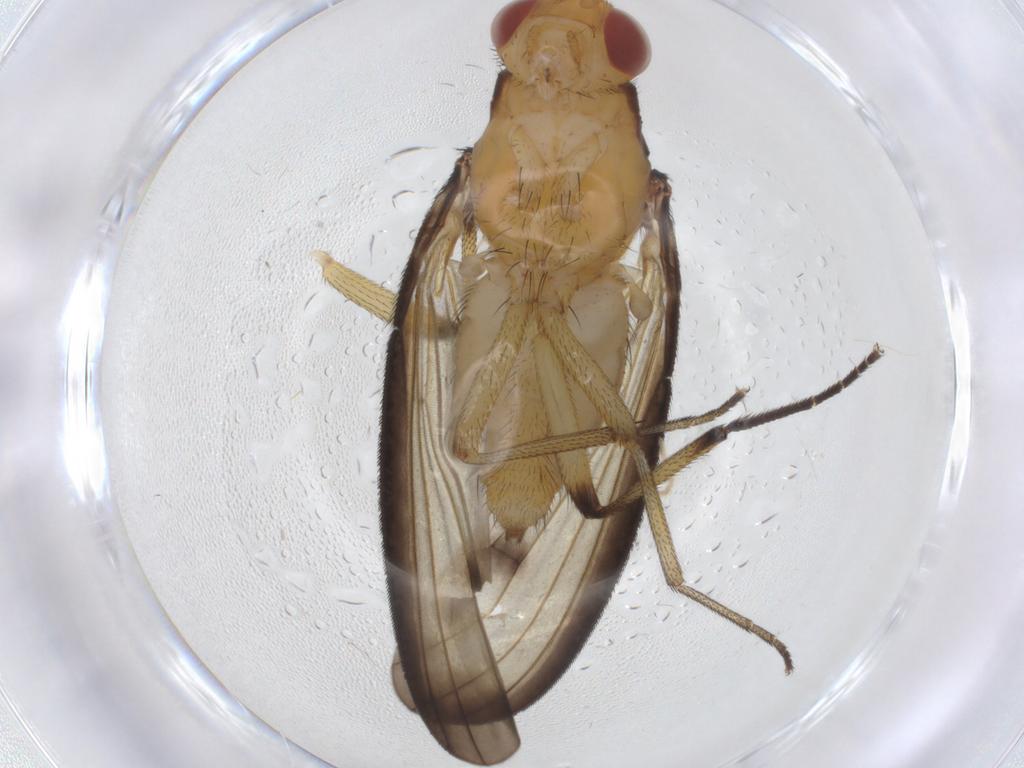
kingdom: Animalia
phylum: Arthropoda
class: Insecta
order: Diptera
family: Heleomyzidae
